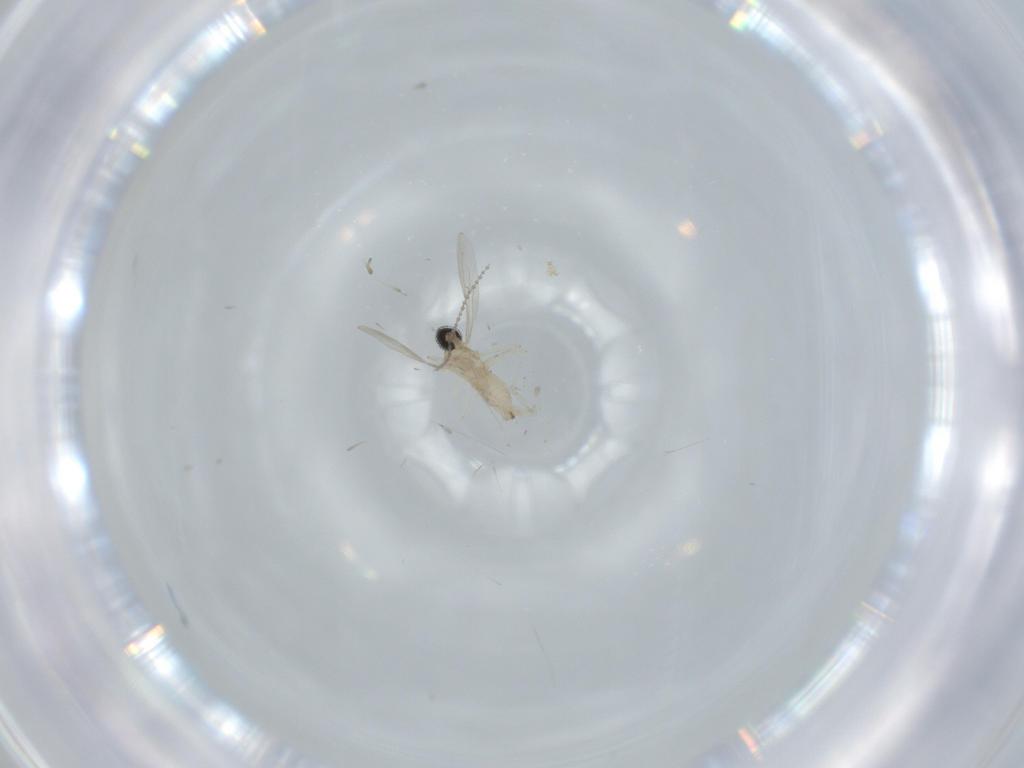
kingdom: Animalia
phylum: Arthropoda
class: Insecta
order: Diptera
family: Cecidomyiidae
